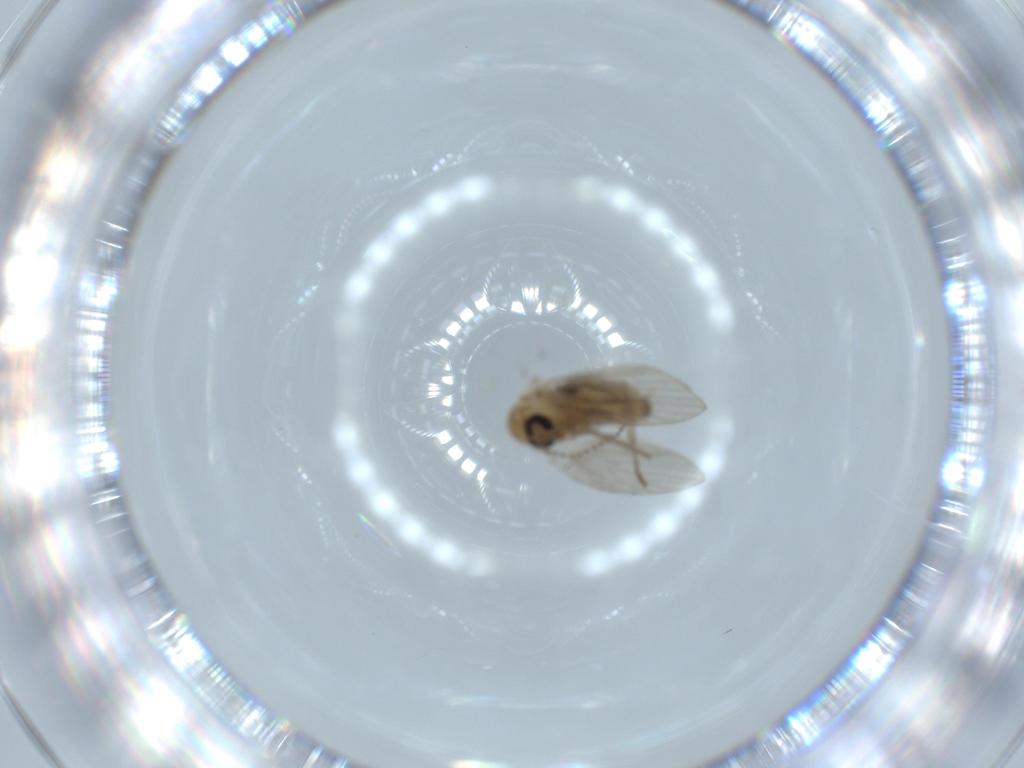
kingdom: Animalia
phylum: Arthropoda
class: Insecta
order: Diptera
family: Psychodidae
